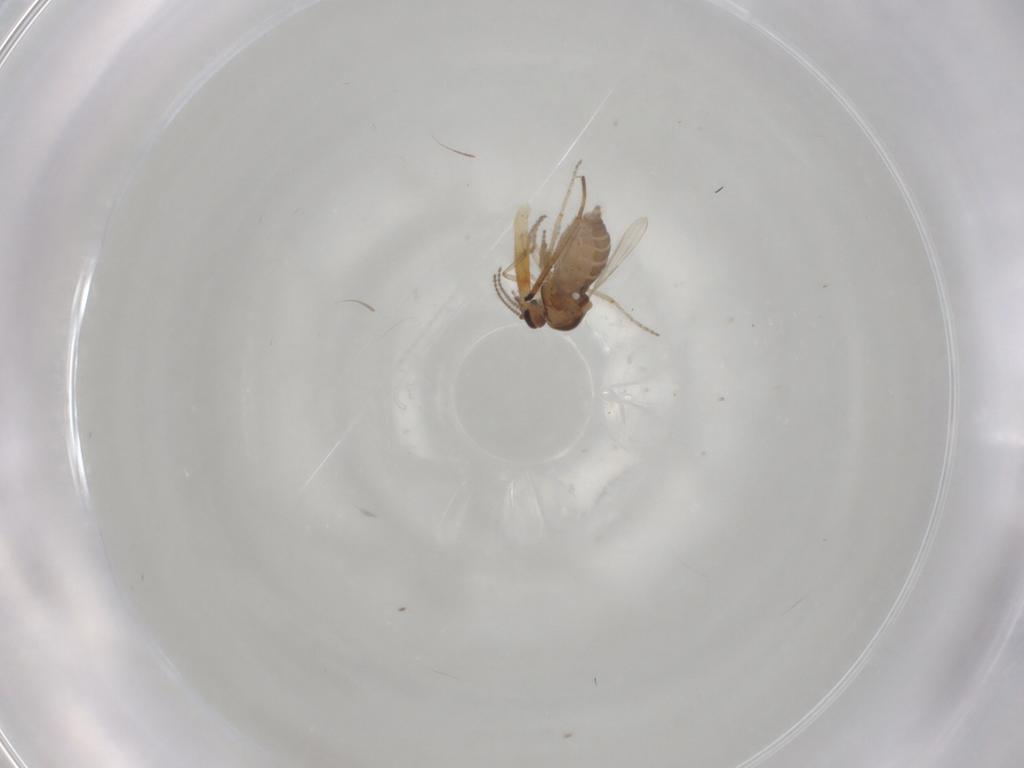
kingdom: Animalia
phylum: Arthropoda
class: Insecta
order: Diptera
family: Ceratopogonidae
